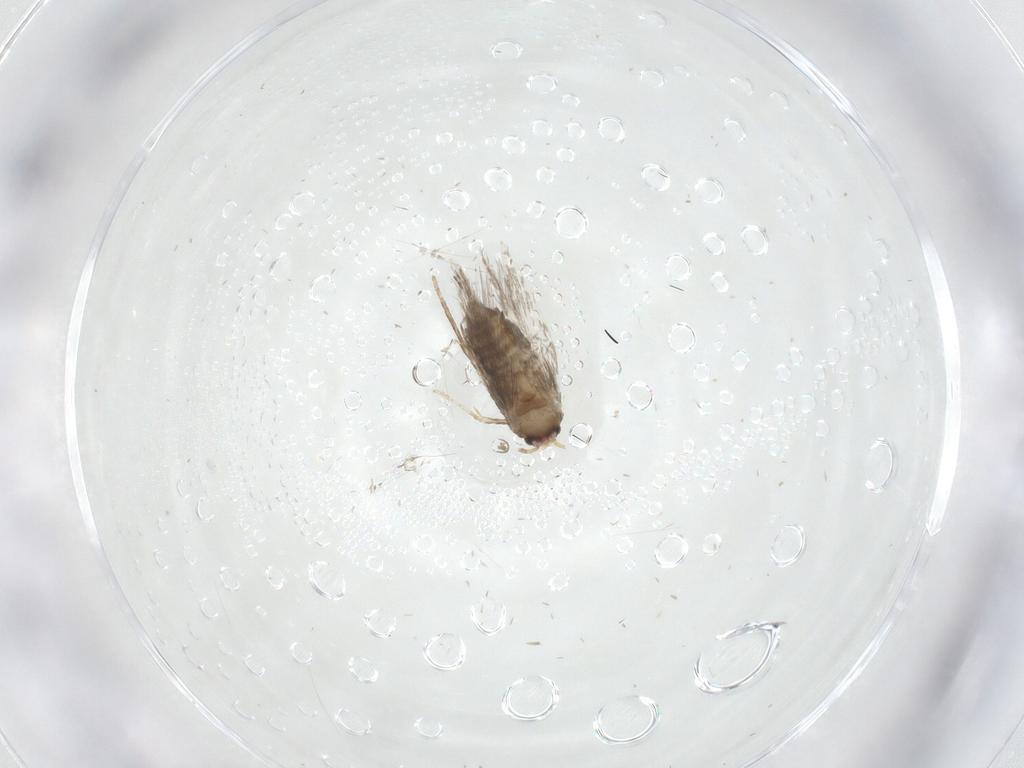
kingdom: Animalia
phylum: Arthropoda
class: Insecta
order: Lepidoptera
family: Nepticulidae
